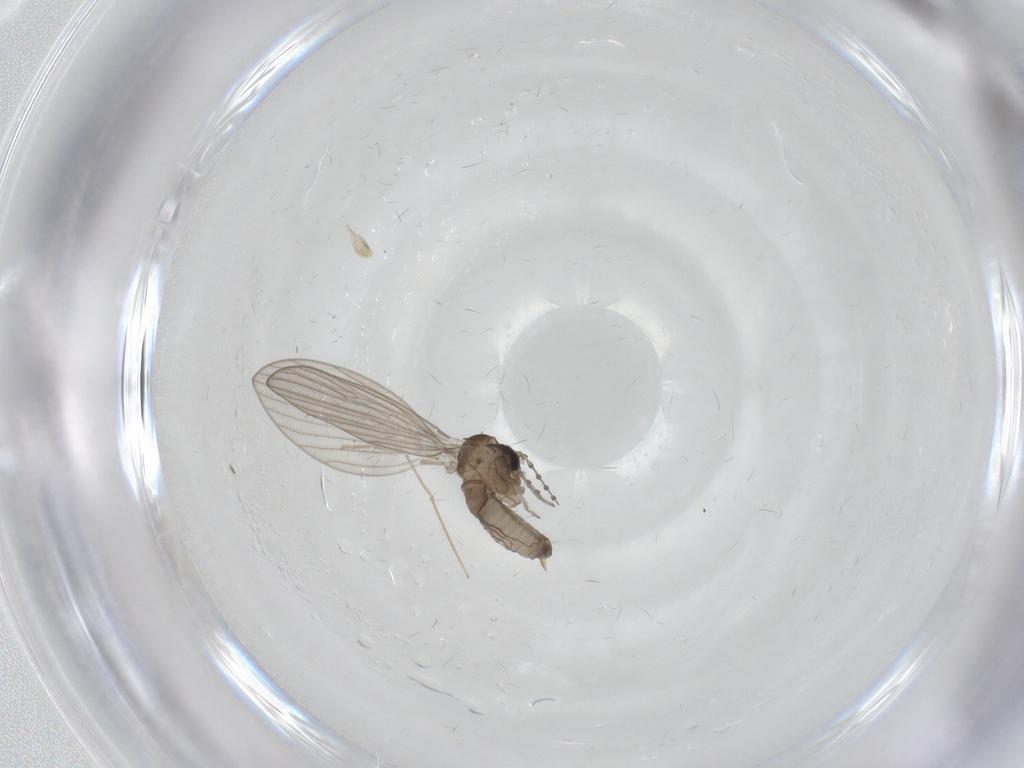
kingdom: Animalia
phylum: Arthropoda
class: Insecta
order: Diptera
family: Chironomidae
